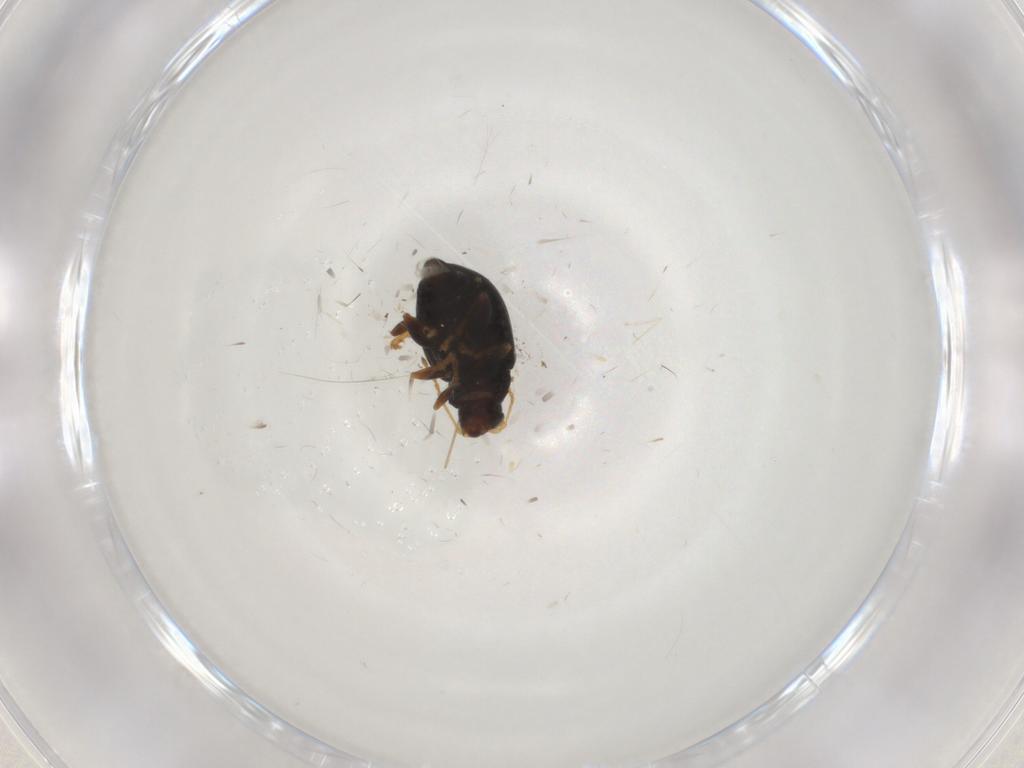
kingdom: Animalia
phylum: Arthropoda
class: Insecta
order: Coleoptera
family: Chrysomelidae
